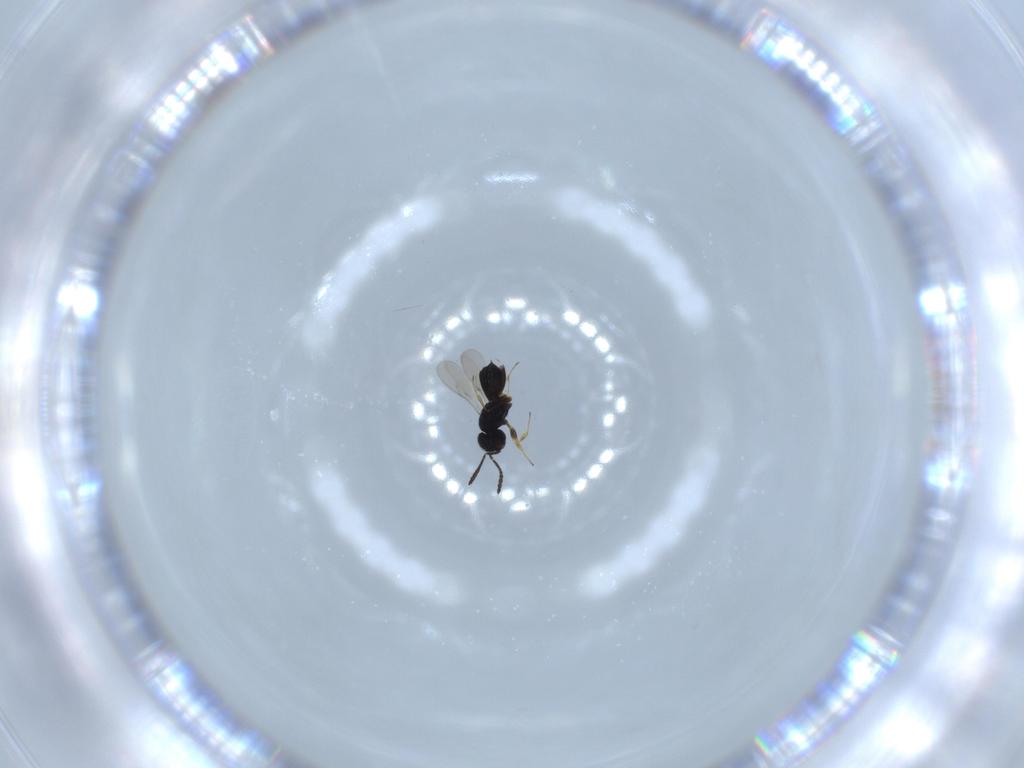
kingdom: Animalia
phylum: Arthropoda
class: Insecta
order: Hymenoptera
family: Scelionidae
